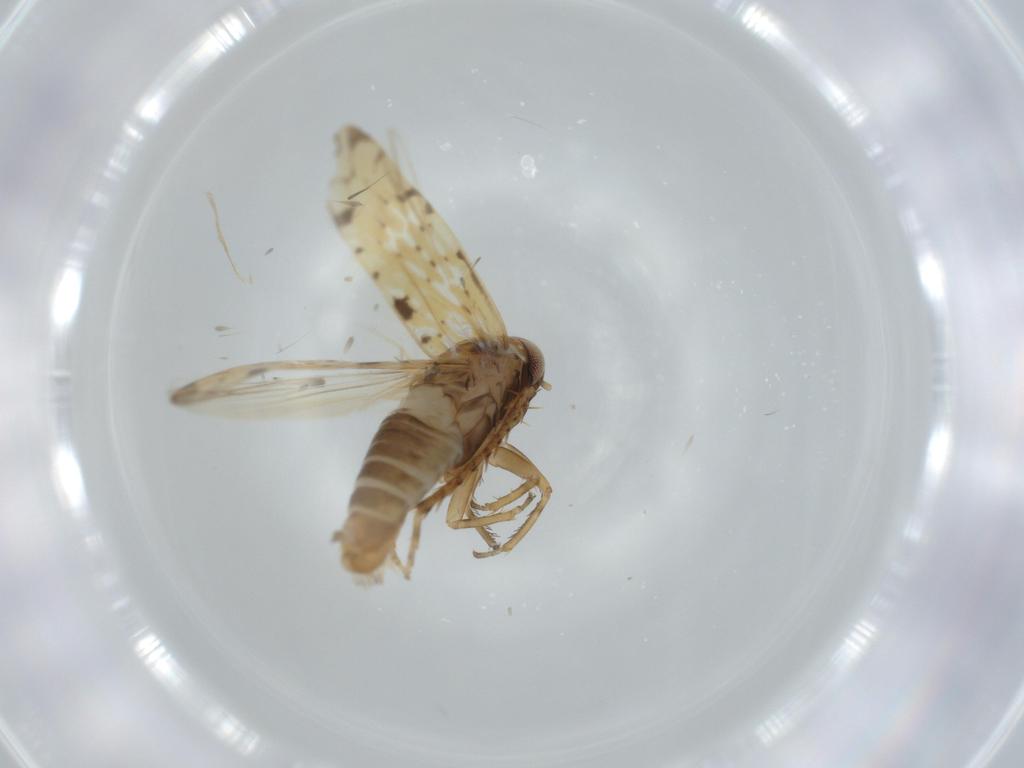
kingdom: Animalia
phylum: Arthropoda
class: Insecta
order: Hemiptera
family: Cicadellidae
